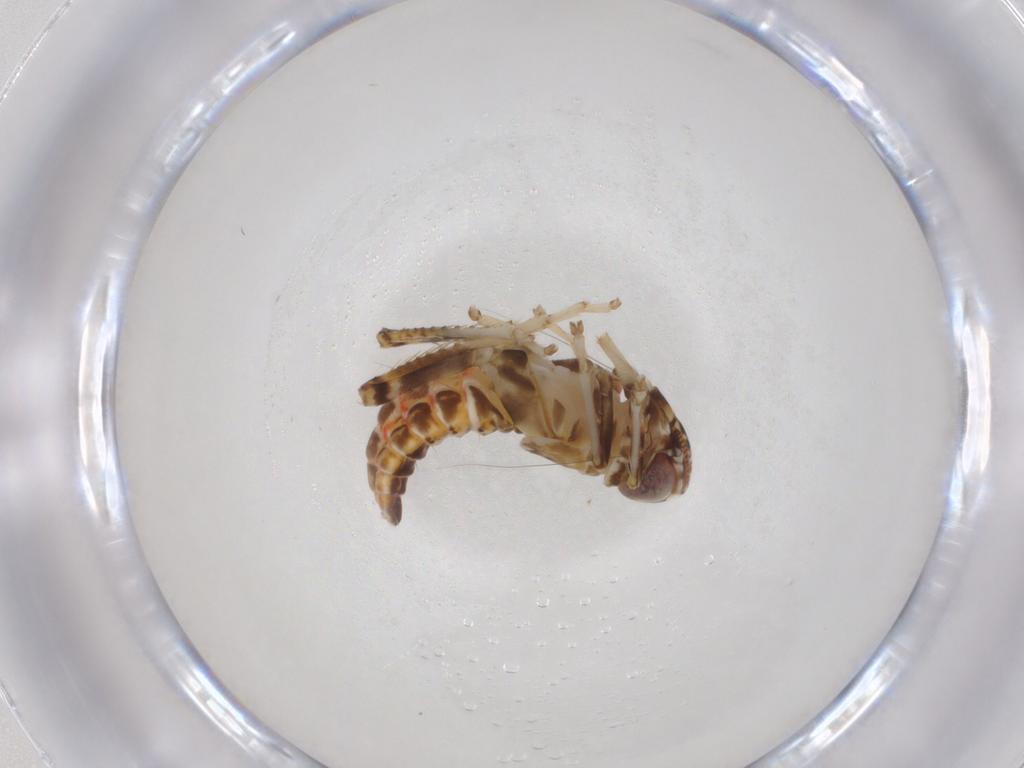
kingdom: Animalia
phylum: Arthropoda
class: Insecta
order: Hemiptera
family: Cicadellidae
